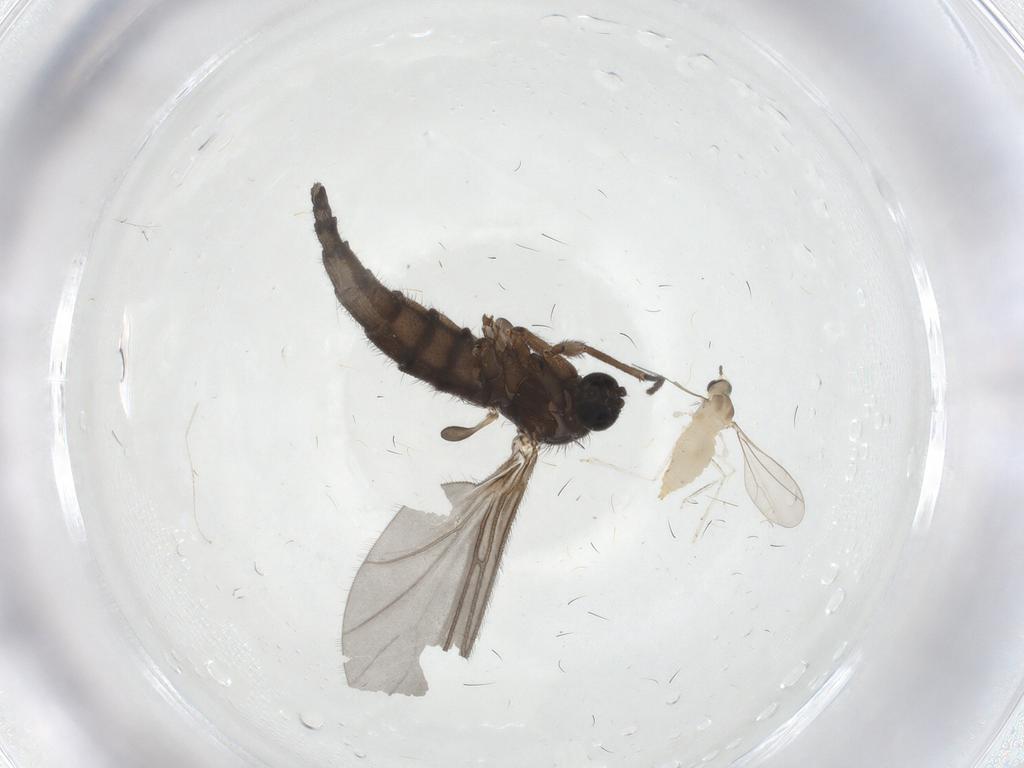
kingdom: Animalia
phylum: Arthropoda
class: Insecta
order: Diptera
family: Sciaridae
